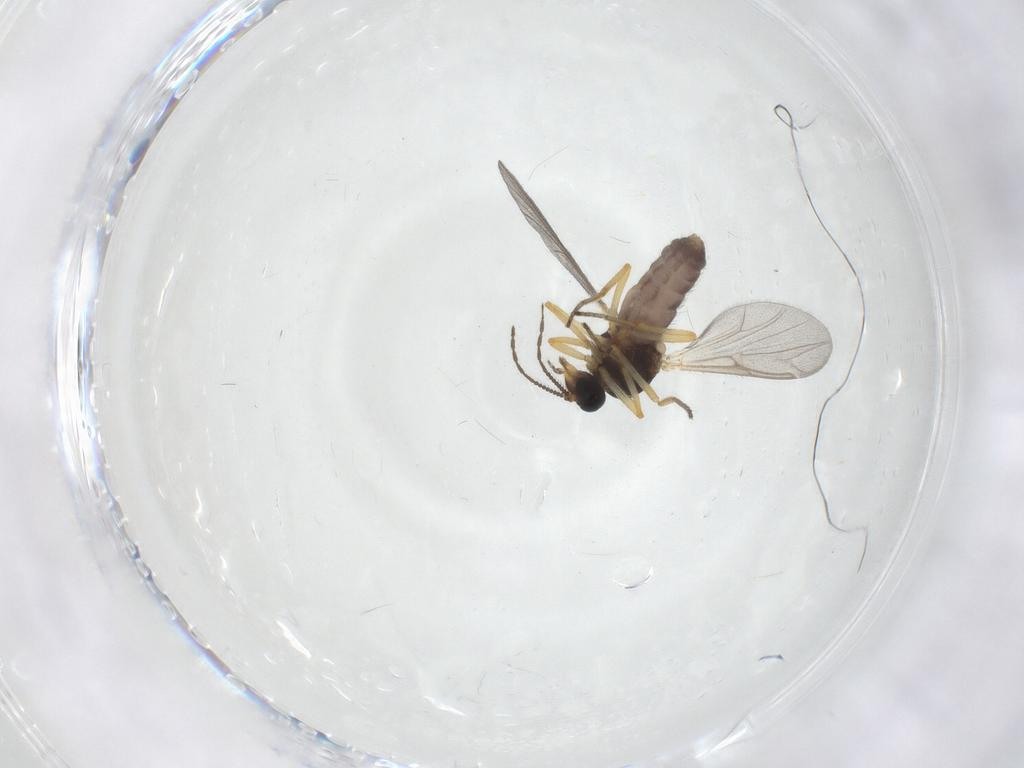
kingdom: Animalia
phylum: Arthropoda
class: Insecta
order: Diptera
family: Ceratopogonidae
